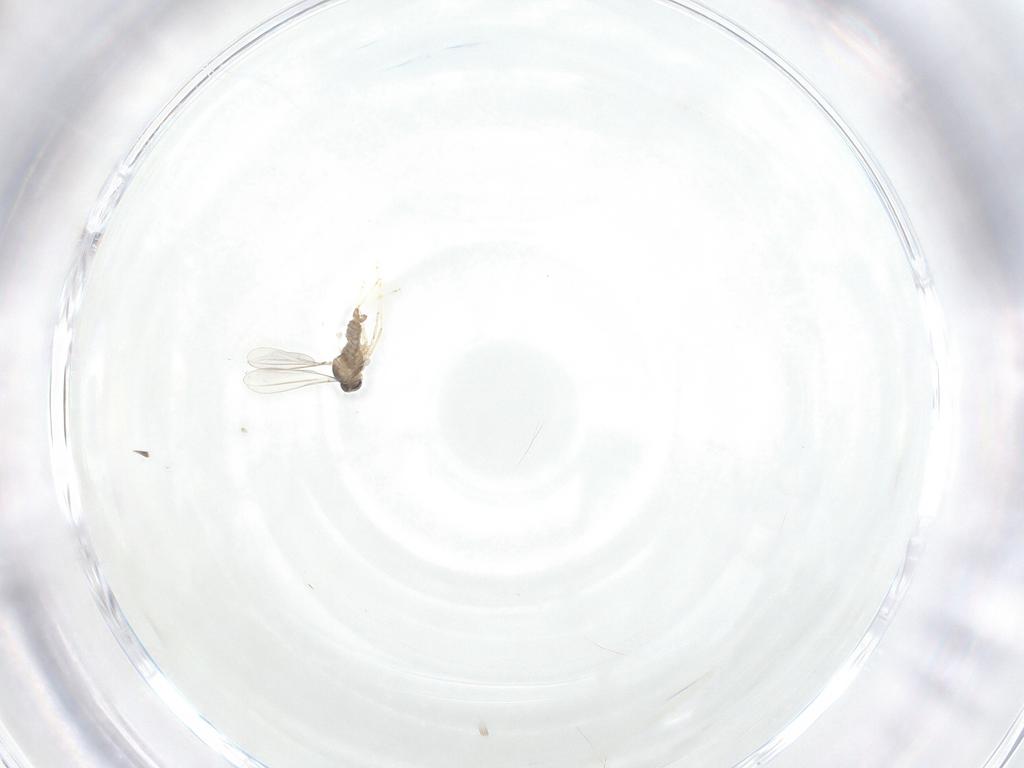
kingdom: Animalia
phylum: Arthropoda
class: Insecta
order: Diptera
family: Cecidomyiidae
